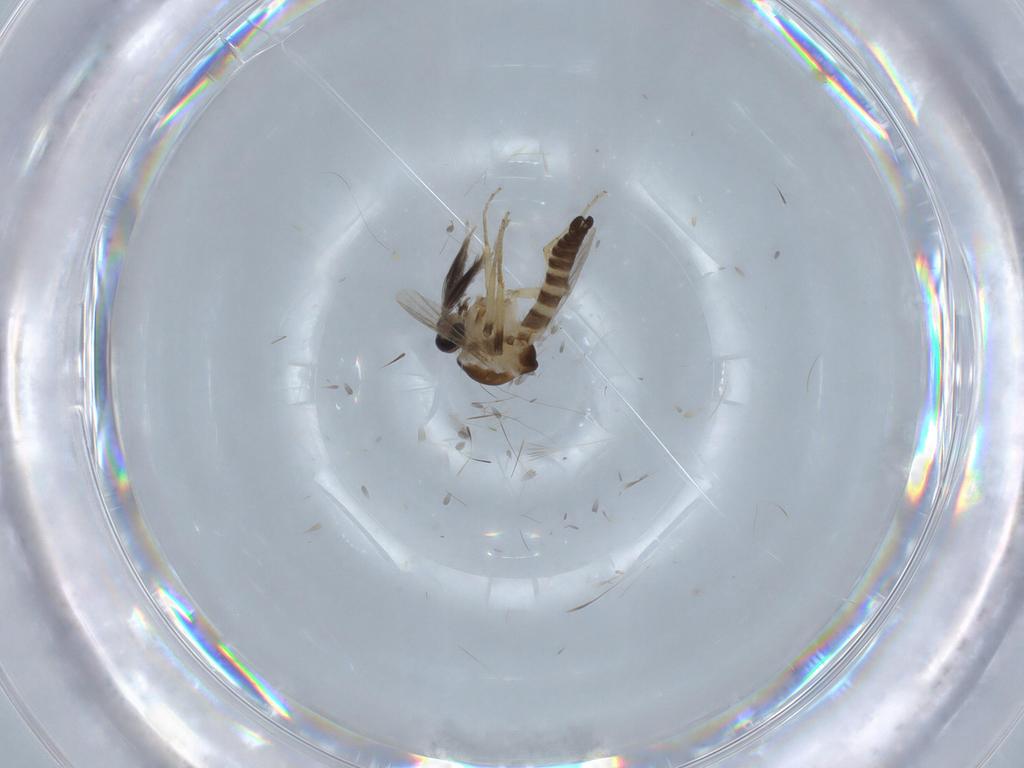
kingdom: Animalia
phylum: Arthropoda
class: Insecta
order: Diptera
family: Ceratopogonidae
